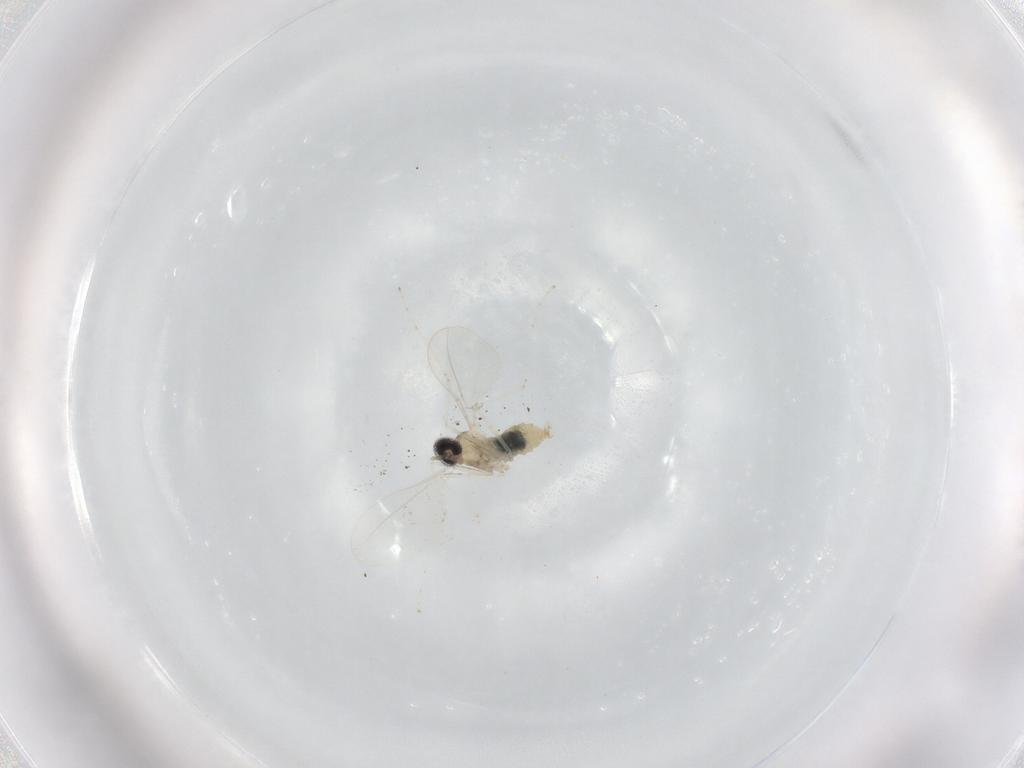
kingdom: Animalia
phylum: Arthropoda
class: Insecta
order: Diptera
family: Cecidomyiidae
